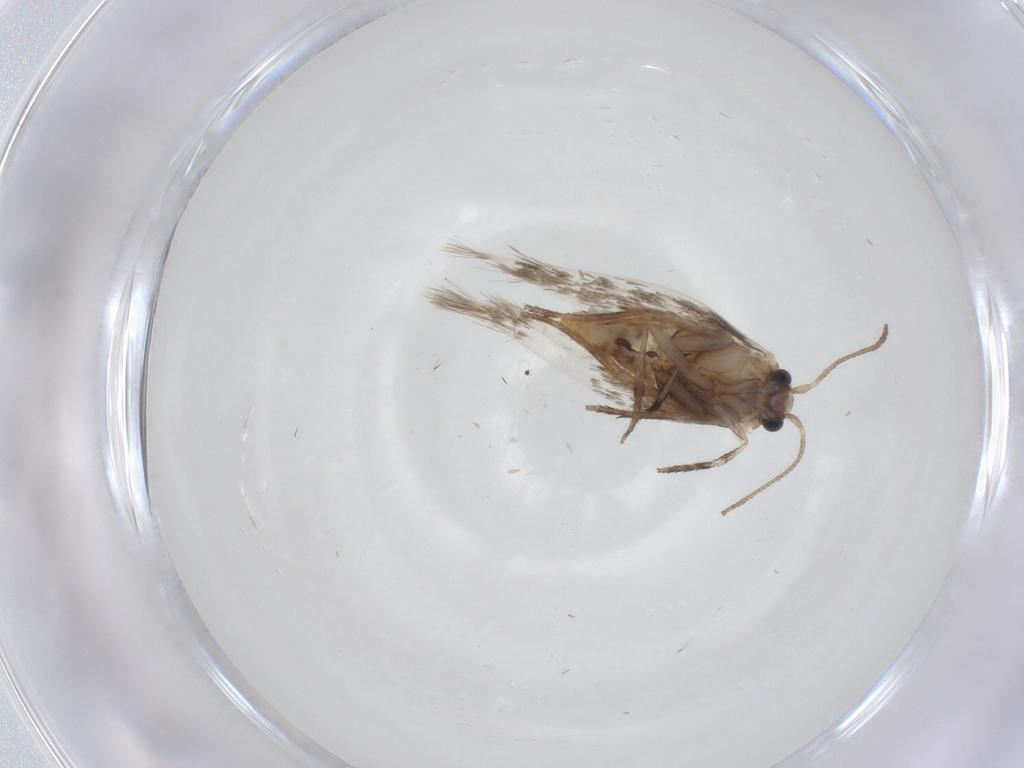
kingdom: Animalia
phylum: Arthropoda
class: Insecta
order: Lepidoptera
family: Nepticulidae
